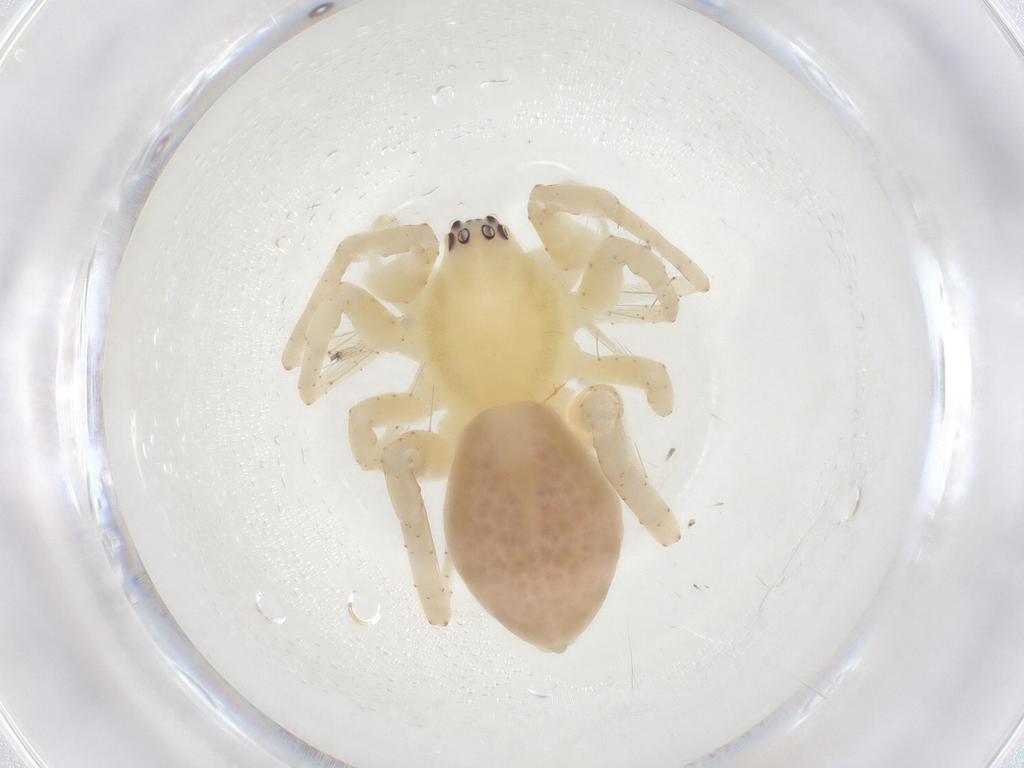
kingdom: Animalia
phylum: Arthropoda
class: Arachnida
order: Araneae
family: Anyphaenidae
